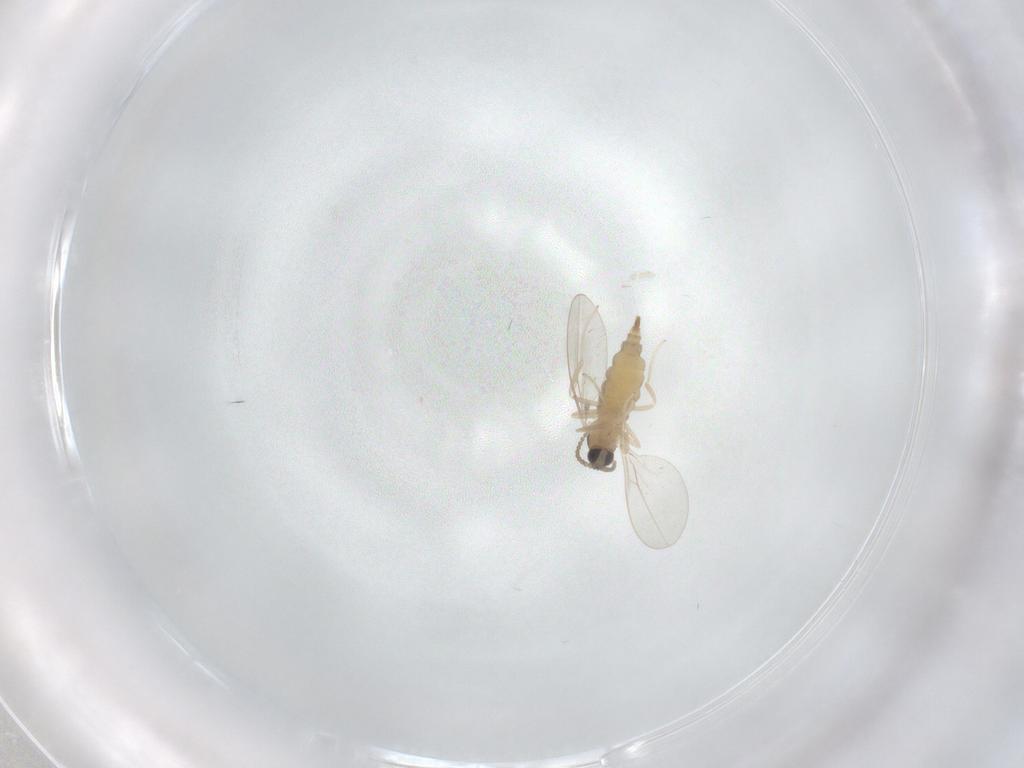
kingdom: Animalia
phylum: Arthropoda
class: Insecta
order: Diptera
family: Cecidomyiidae
